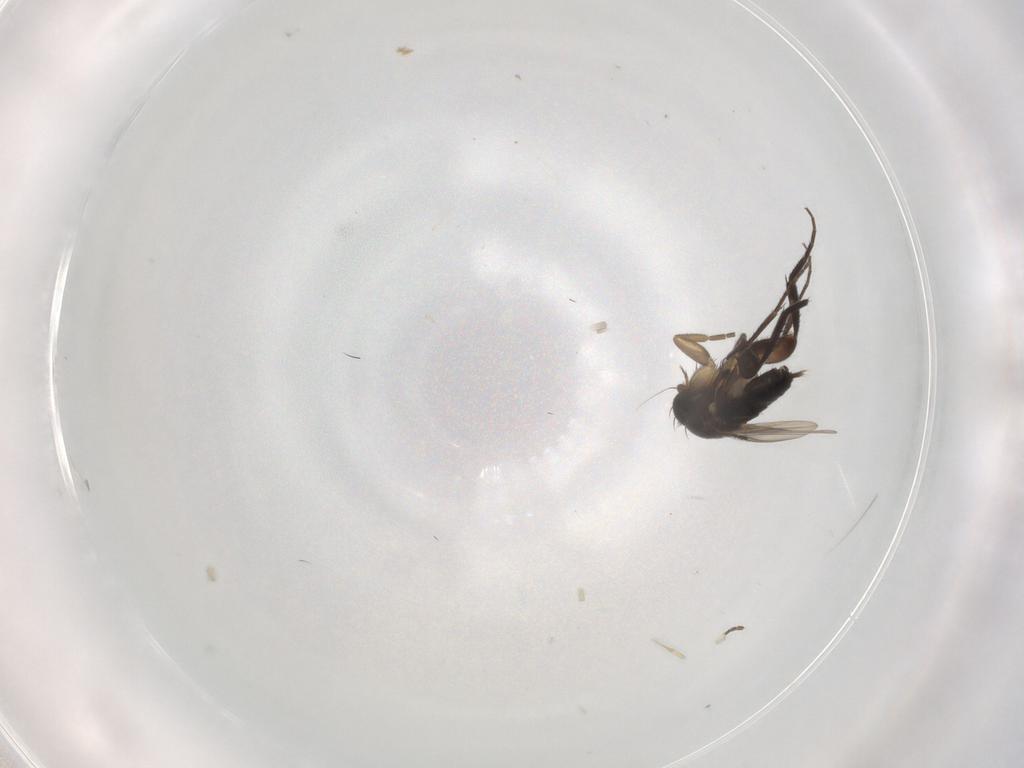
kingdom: Animalia
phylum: Arthropoda
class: Insecta
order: Diptera
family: Phoridae
